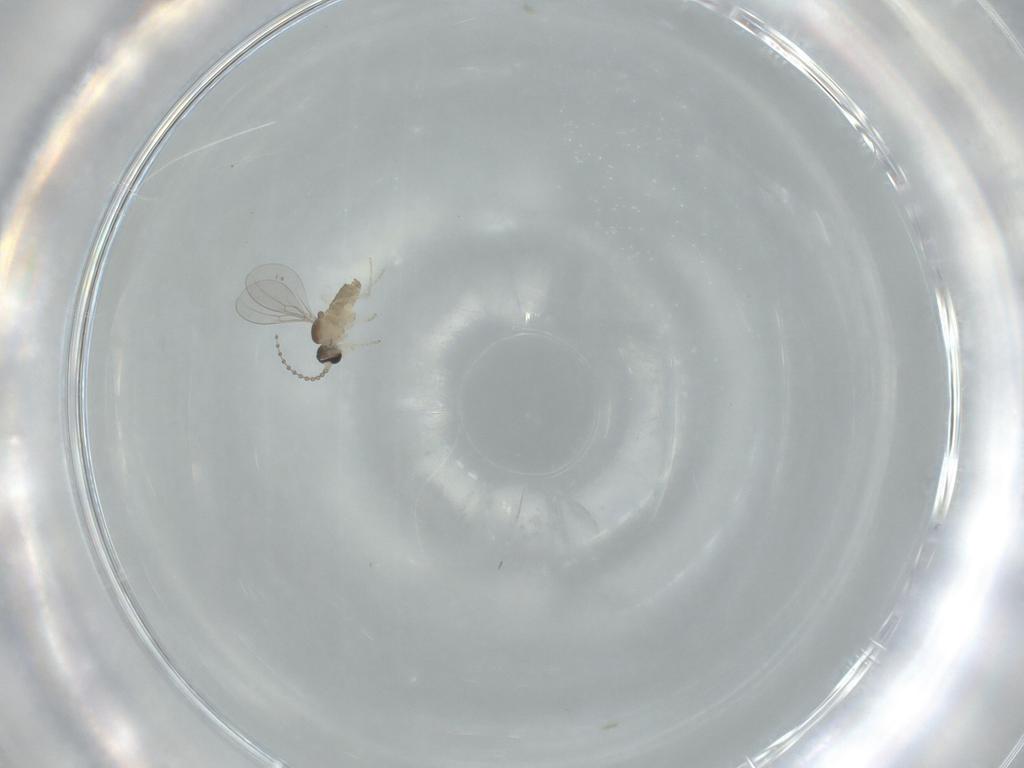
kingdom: Animalia
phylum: Arthropoda
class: Insecta
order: Diptera
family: Cecidomyiidae
